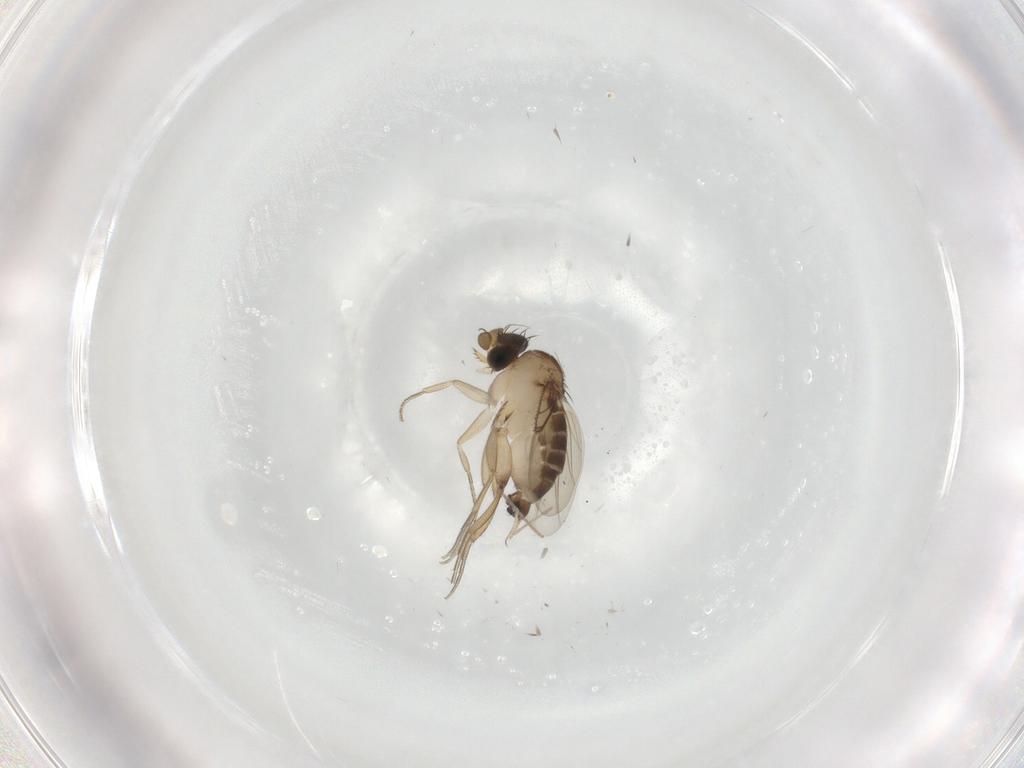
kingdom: Animalia
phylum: Arthropoda
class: Insecta
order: Diptera
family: Phoridae
